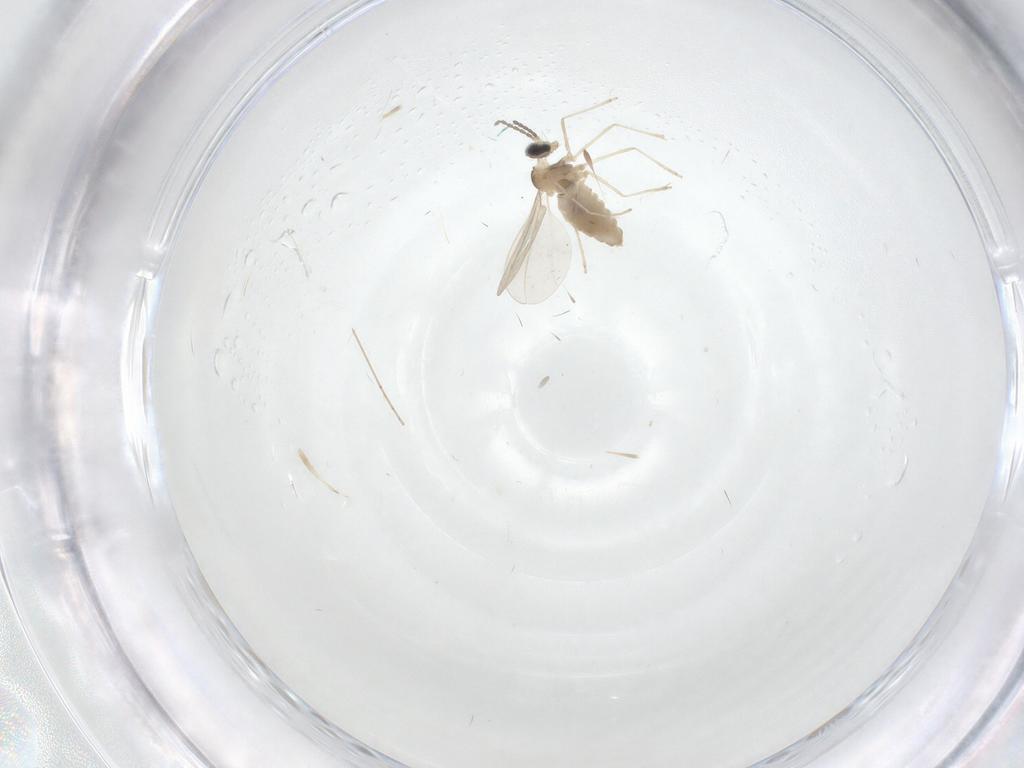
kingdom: Animalia
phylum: Arthropoda
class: Insecta
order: Diptera
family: Cecidomyiidae
